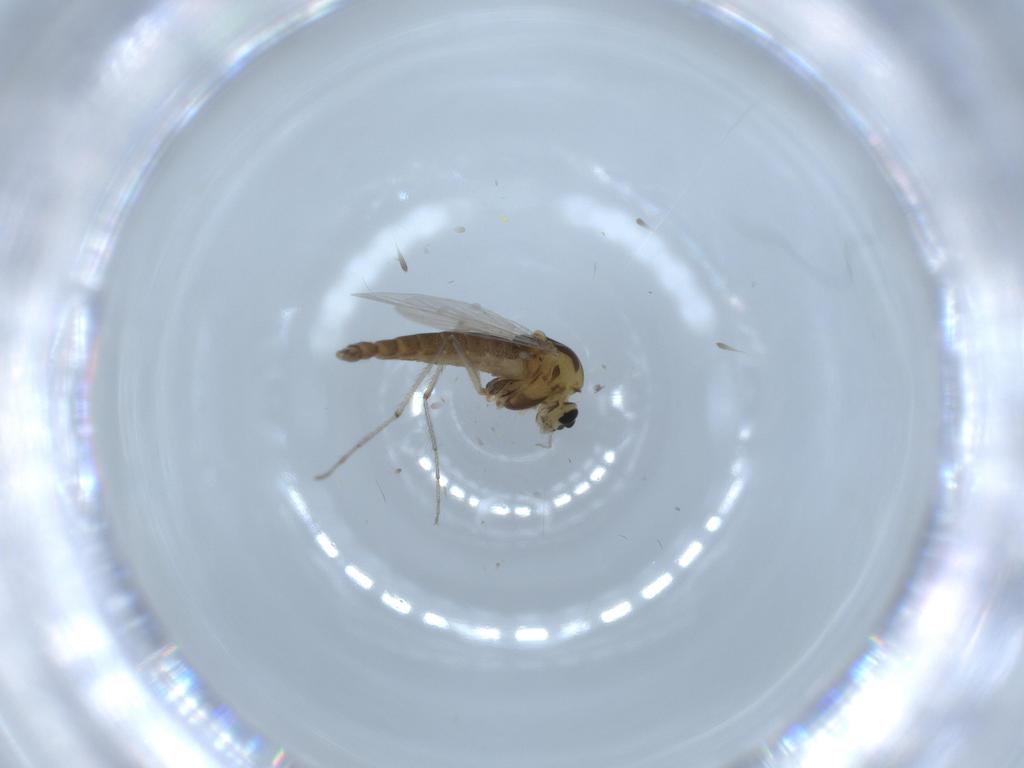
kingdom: Animalia
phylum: Arthropoda
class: Insecta
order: Diptera
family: Chironomidae
